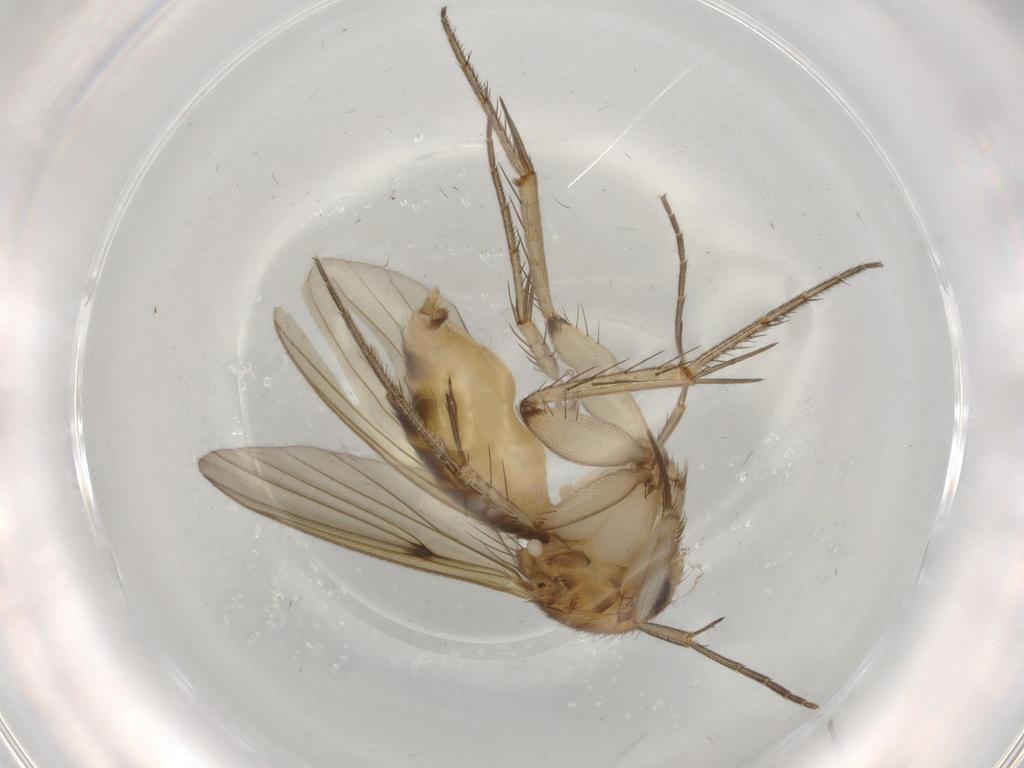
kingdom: Animalia
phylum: Arthropoda
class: Insecta
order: Diptera
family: Mycetophilidae
